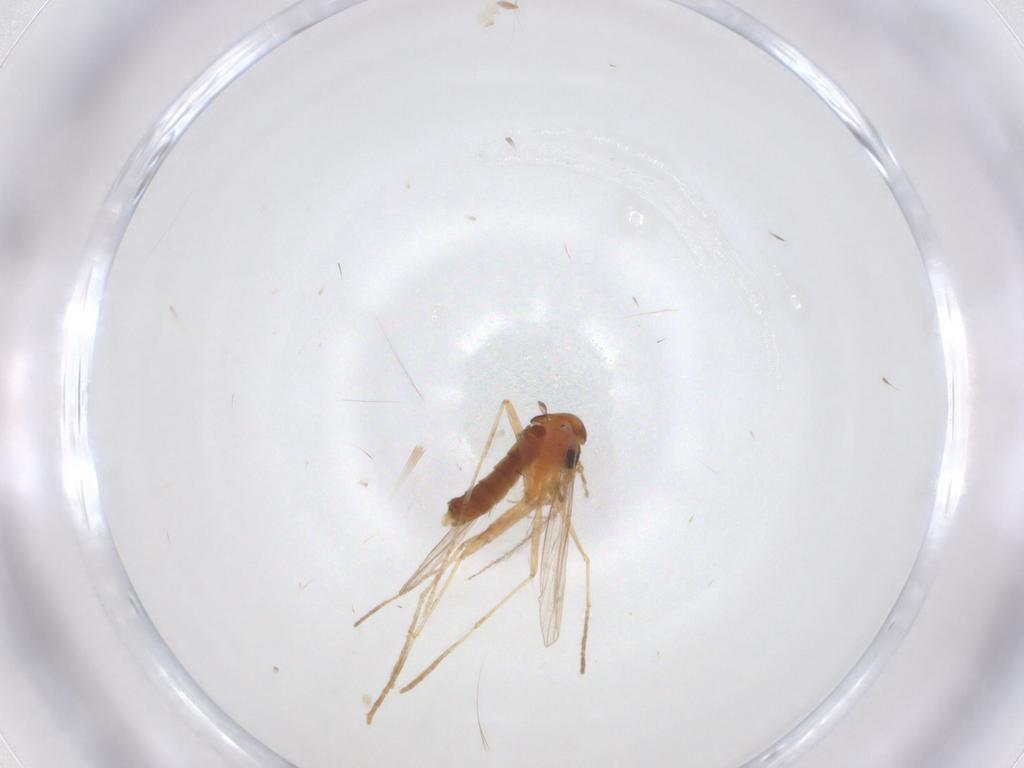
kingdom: Animalia
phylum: Arthropoda
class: Insecta
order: Diptera
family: Psychodidae
